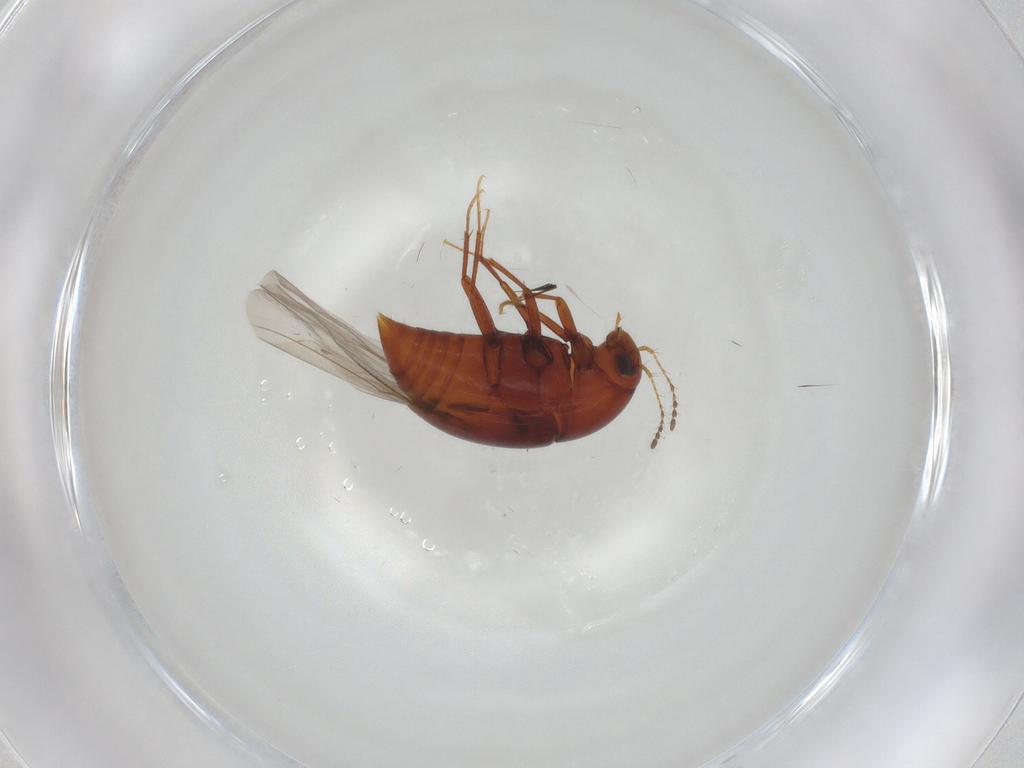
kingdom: Animalia
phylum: Arthropoda
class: Insecta
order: Coleoptera
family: Staphylinidae
